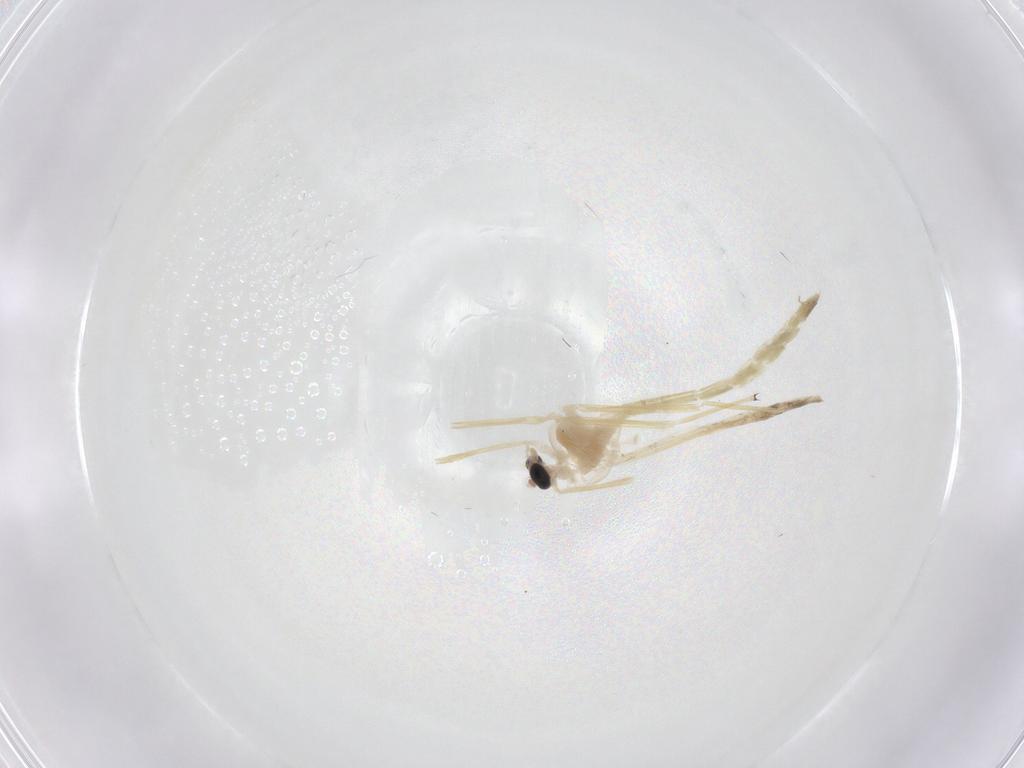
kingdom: Animalia
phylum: Arthropoda
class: Insecta
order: Diptera
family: Chironomidae
